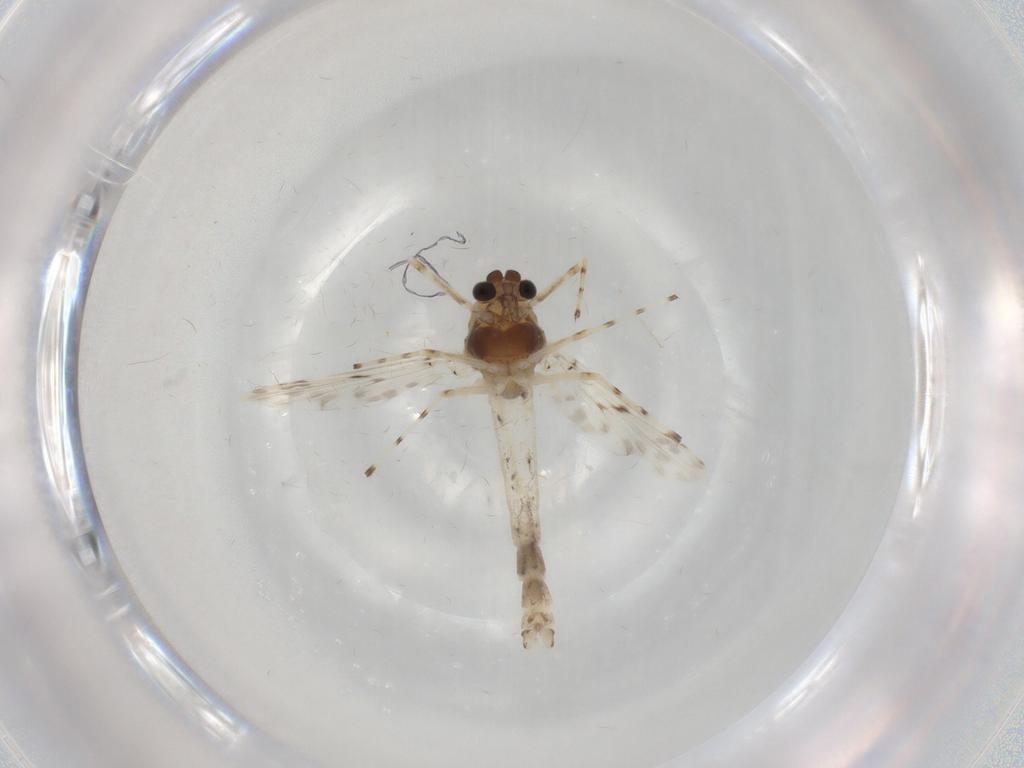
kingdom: Animalia
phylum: Arthropoda
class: Insecta
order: Diptera
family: Chironomidae
